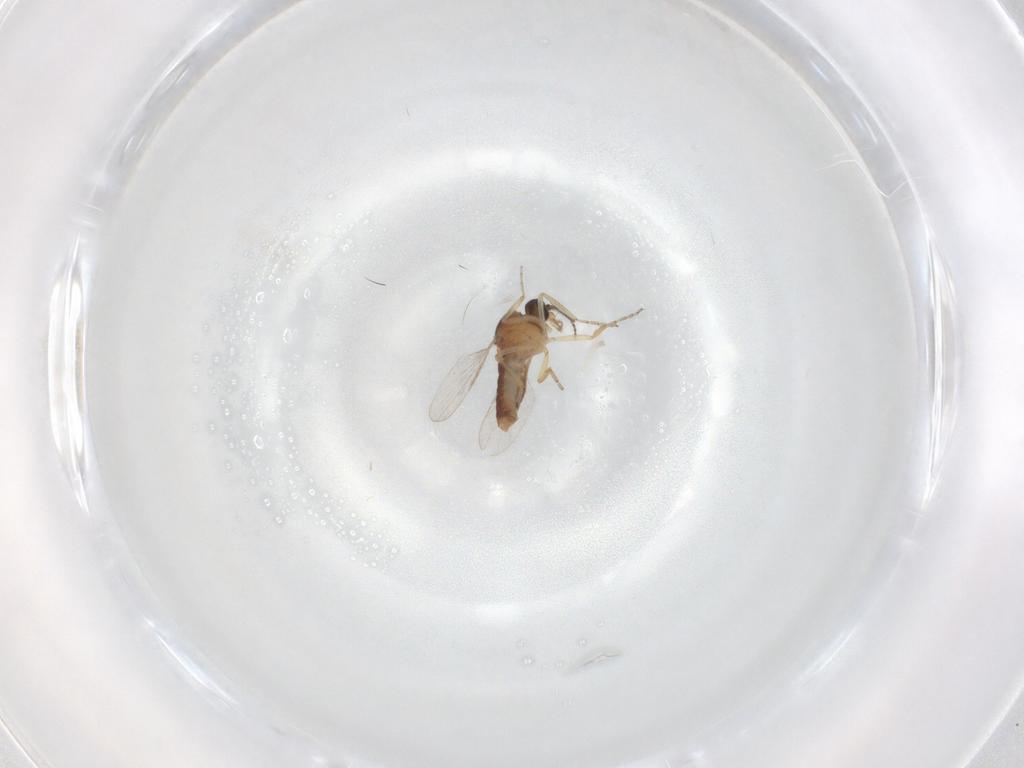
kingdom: Animalia
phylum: Arthropoda
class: Insecta
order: Diptera
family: Ceratopogonidae
